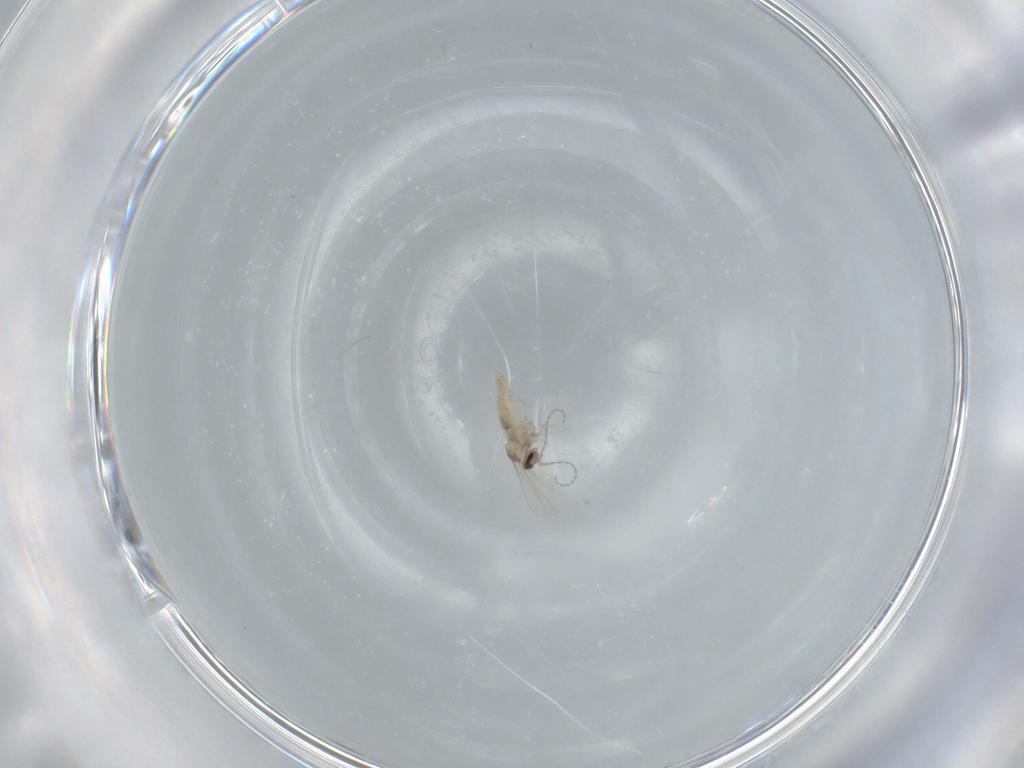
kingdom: Animalia
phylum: Arthropoda
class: Insecta
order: Diptera
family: Cecidomyiidae
